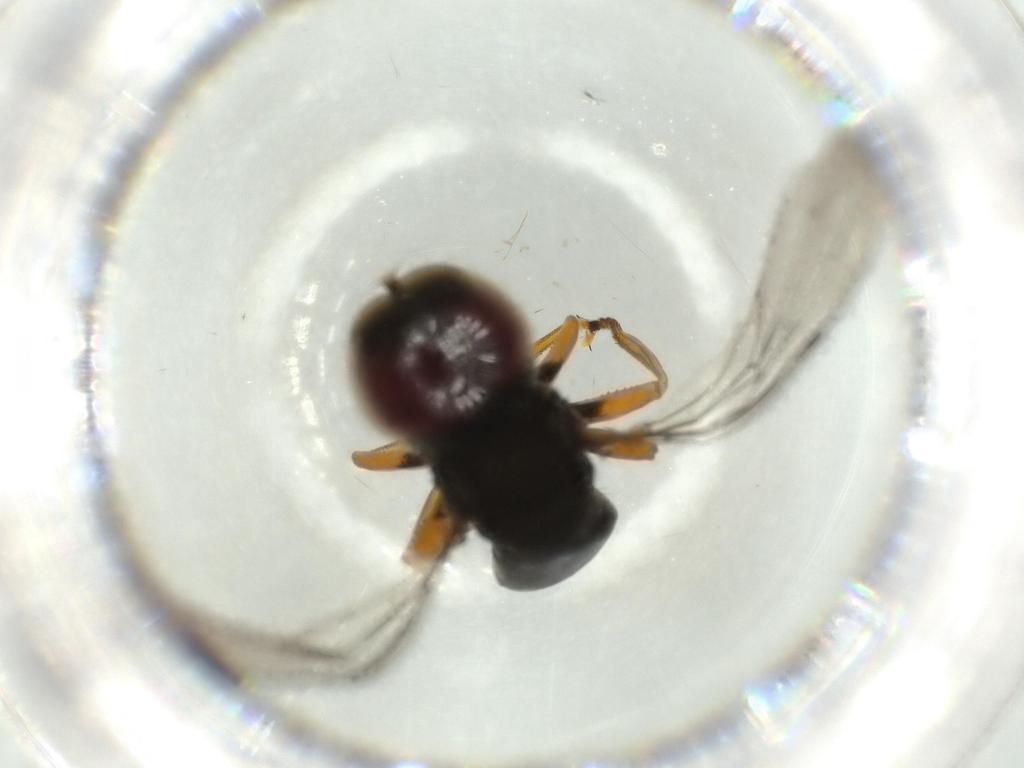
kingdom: Animalia
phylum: Arthropoda
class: Insecta
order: Diptera
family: Pipunculidae
